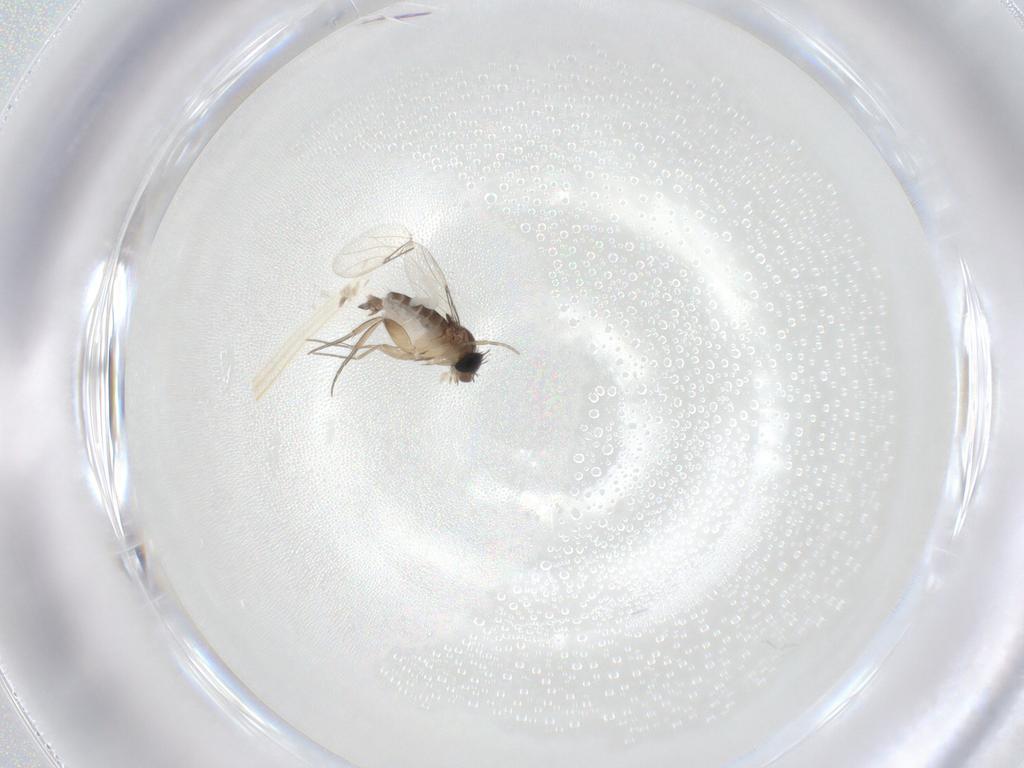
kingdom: Animalia
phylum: Arthropoda
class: Insecta
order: Diptera
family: Phoridae
